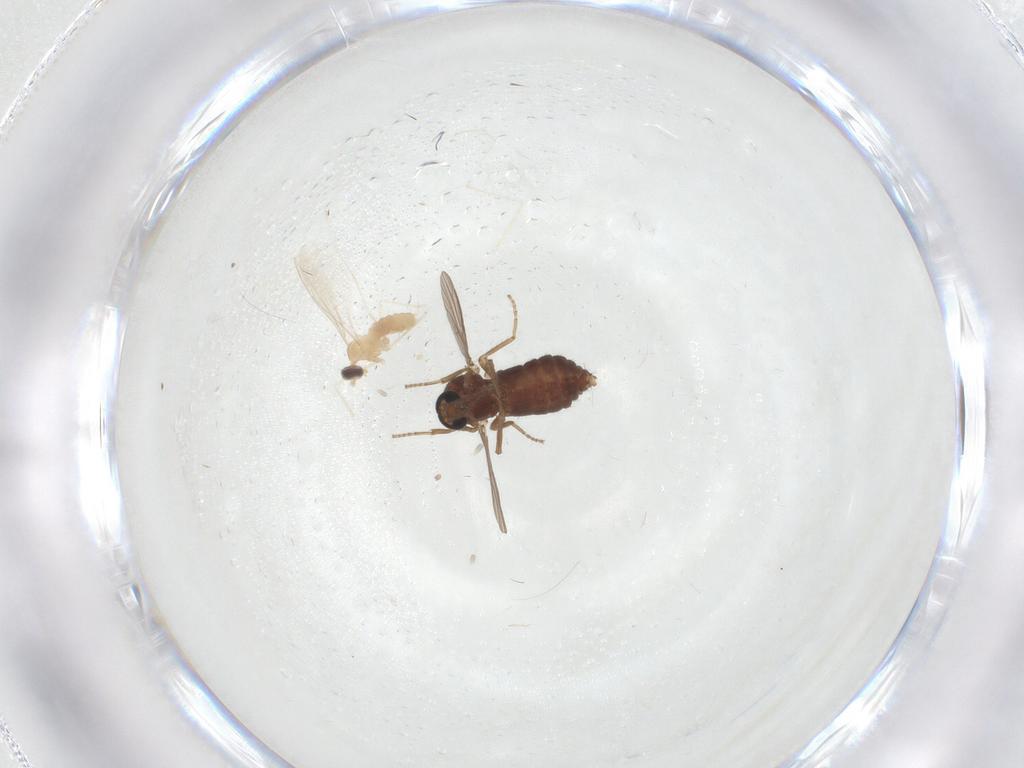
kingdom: Animalia
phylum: Arthropoda
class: Insecta
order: Diptera
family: Ceratopogonidae
